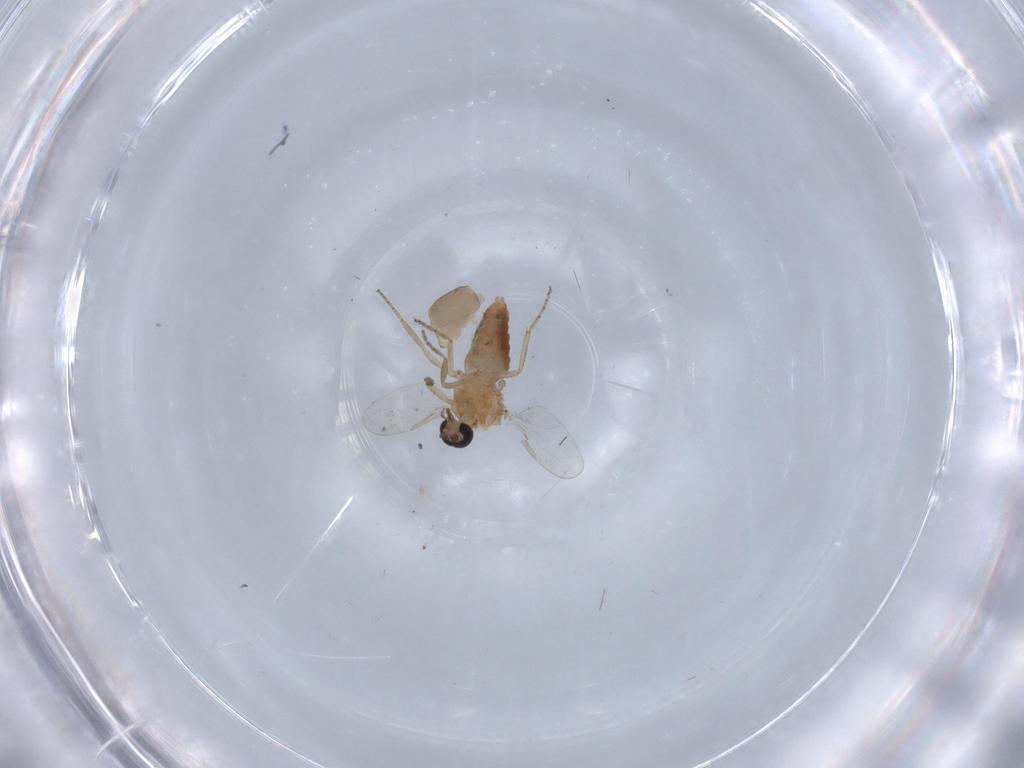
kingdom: Animalia
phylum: Arthropoda
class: Insecta
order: Diptera
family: Ceratopogonidae
